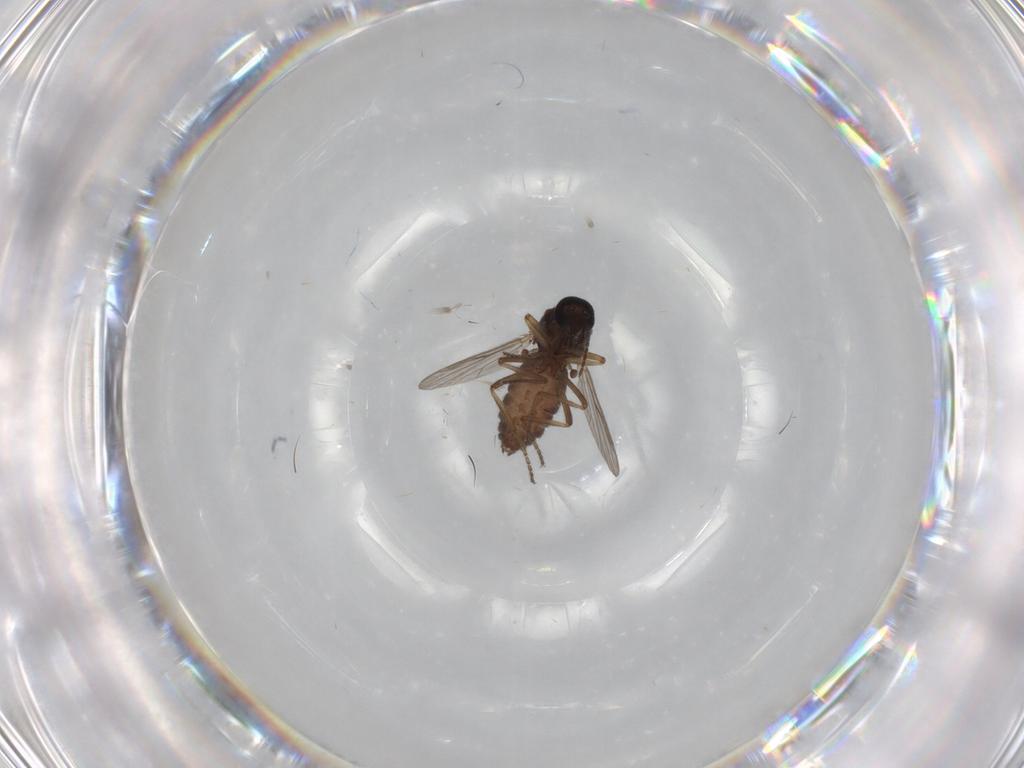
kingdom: Animalia
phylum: Arthropoda
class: Insecta
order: Diptera
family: Ceratopogonidae
